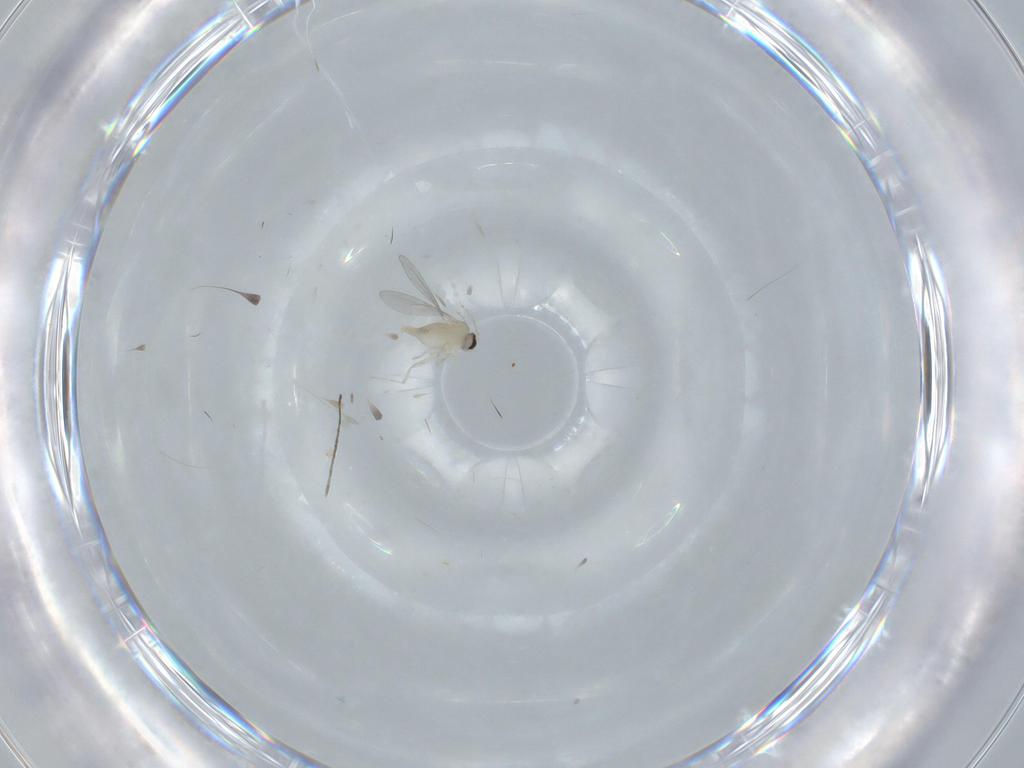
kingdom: Animalia
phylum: Arthropoda
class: Insecta
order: Diptera
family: Cecidomyiidae
